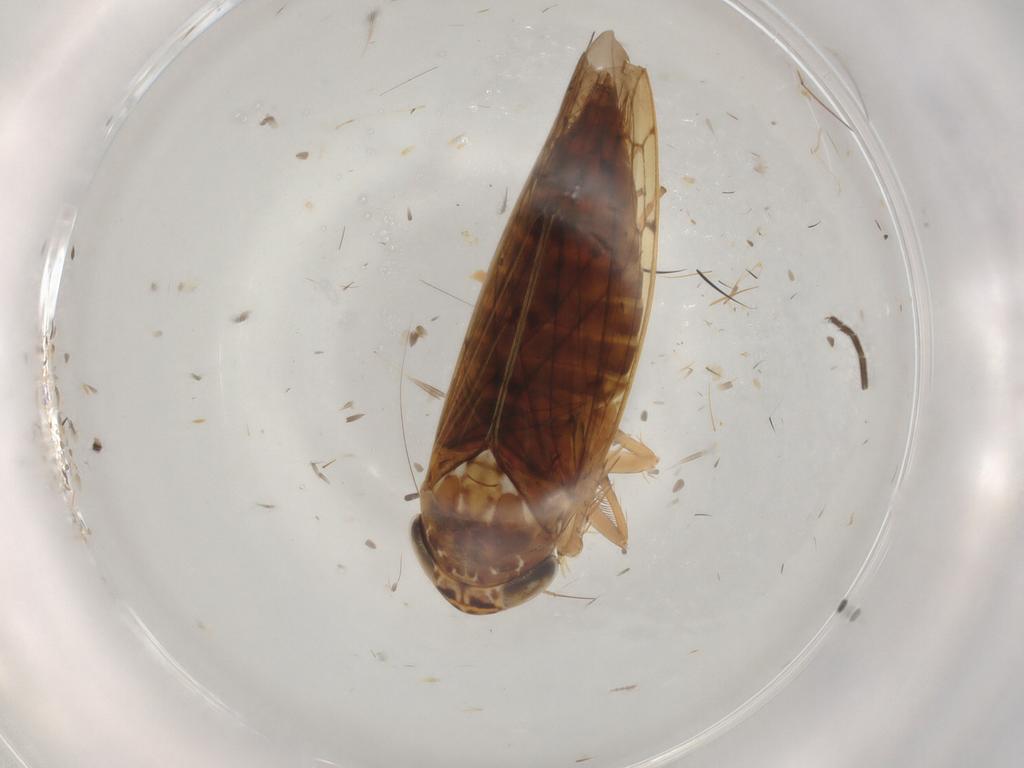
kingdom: Animalia
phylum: Arthropoda
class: Insecta
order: Hemiptera
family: Cicadellidae
